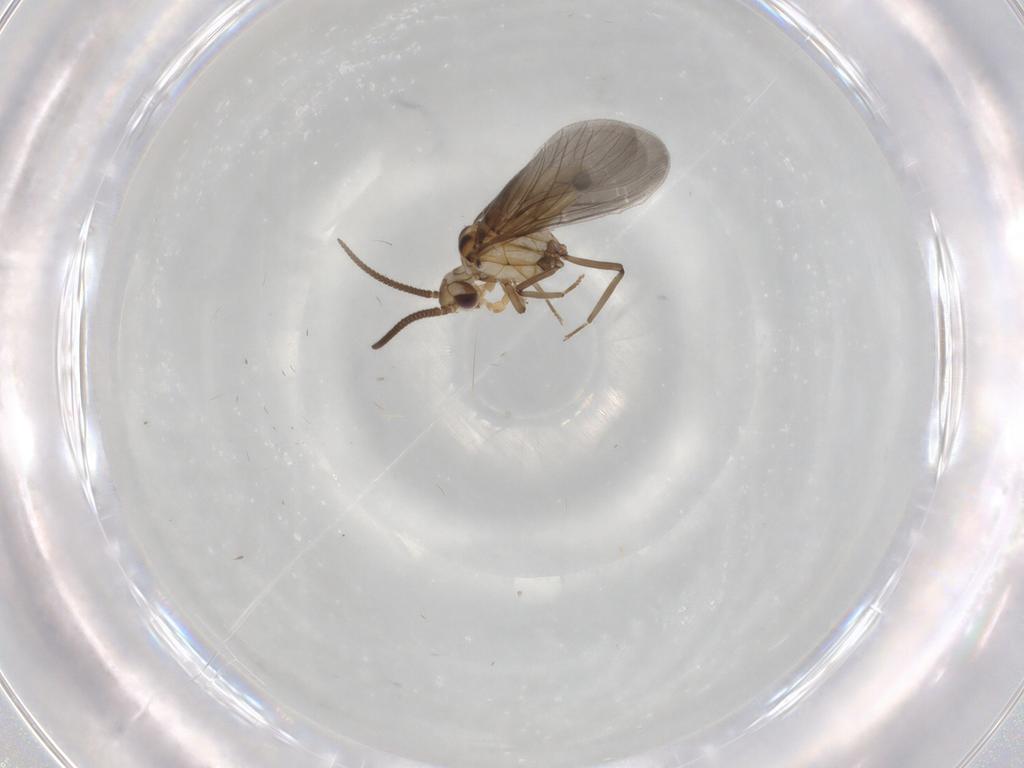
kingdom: Animalia
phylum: Arthropoda
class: Insecta
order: Neuroptera
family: Coniopterygidae
